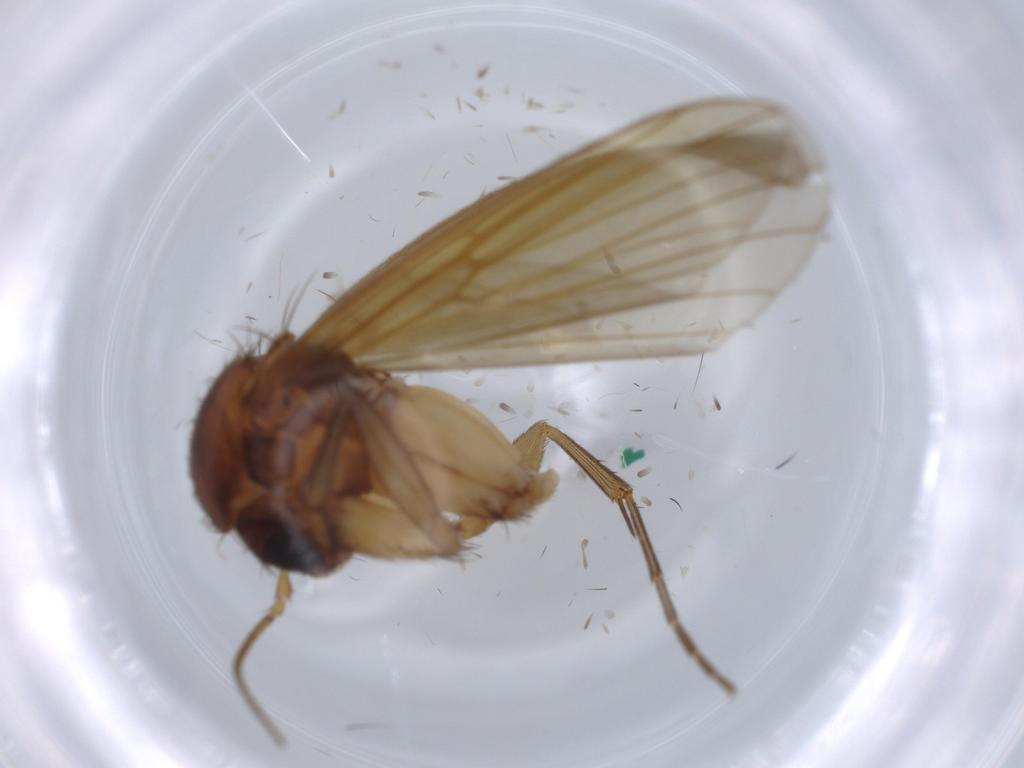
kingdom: Animalia
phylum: Arthropoda
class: Insecta
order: Diptera
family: Phoridae
